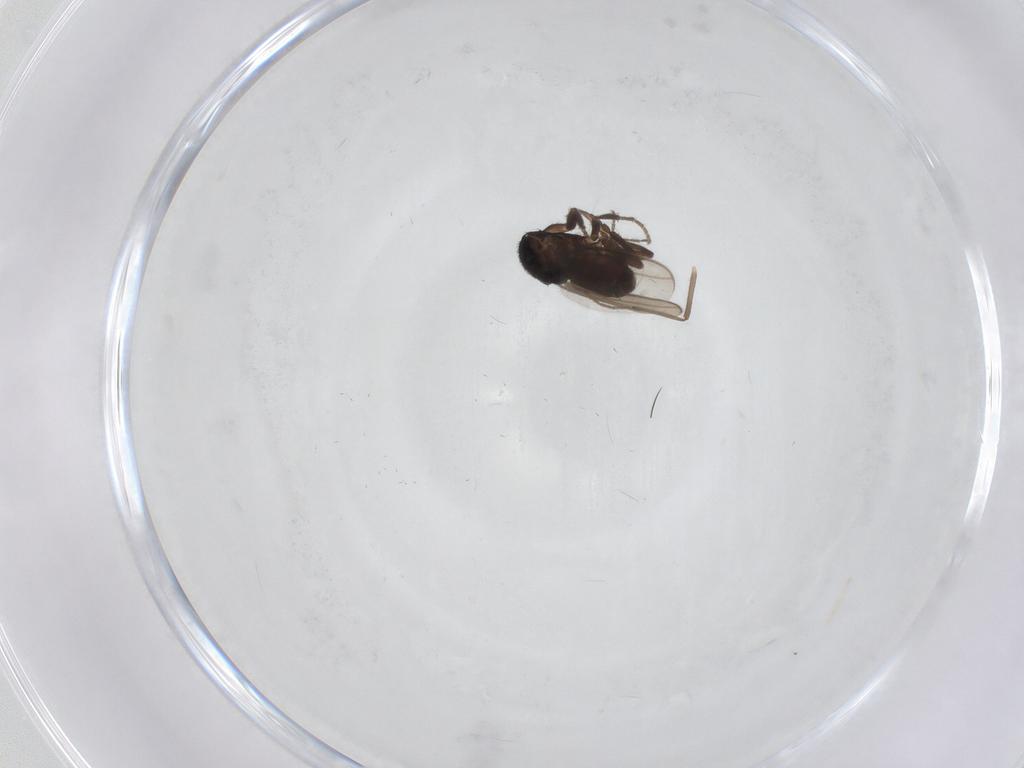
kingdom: Animalia
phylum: Arthropoda
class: Insecta
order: Diptera
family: Sphaeroceridae
